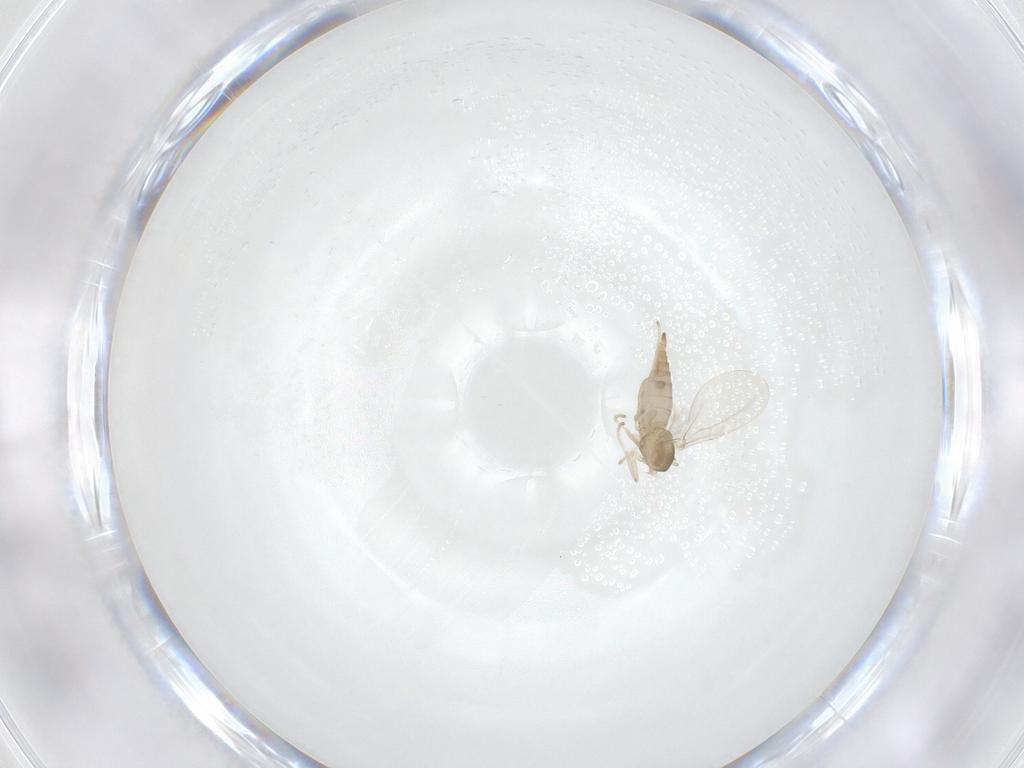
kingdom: Animalia
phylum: Arthropoda
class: Insecta
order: Diptera
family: Cecidomyiidae
